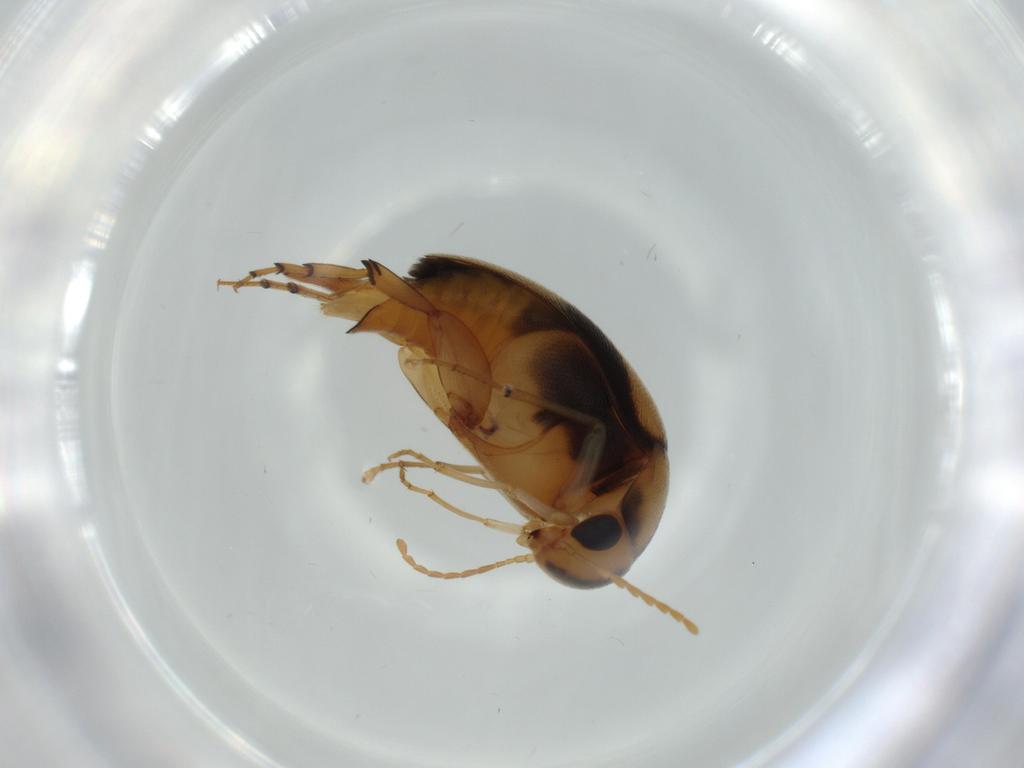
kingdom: Animalia
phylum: Arthropoda
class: Insecta
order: Coleoptera
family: Mordellidae
